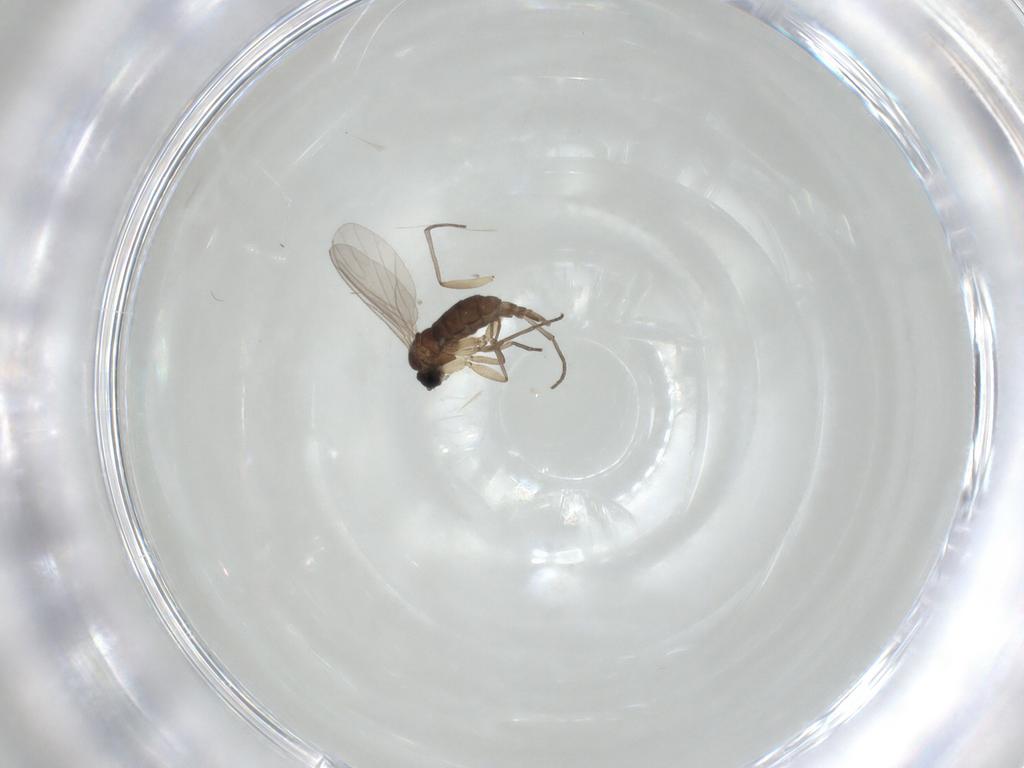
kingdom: Animalia
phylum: Arthropoda
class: Insecta
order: Diptera
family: Sciaridae
